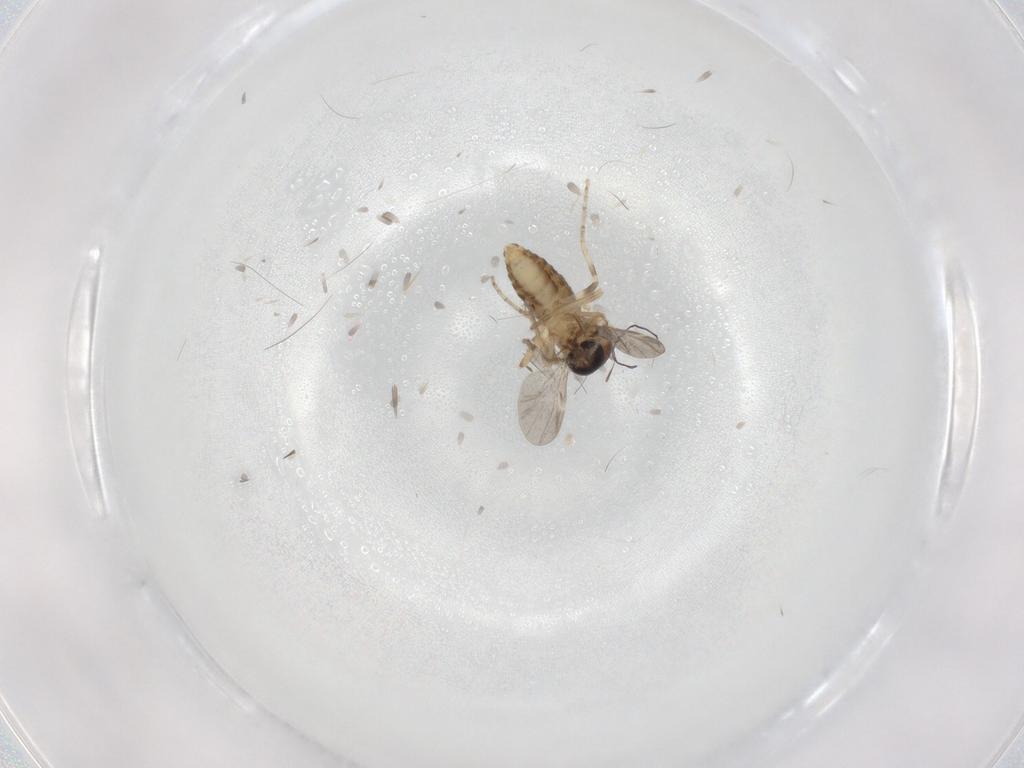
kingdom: Animalia
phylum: Arthropoda
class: Insecta
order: Diptera
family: Ceratopogonidae
